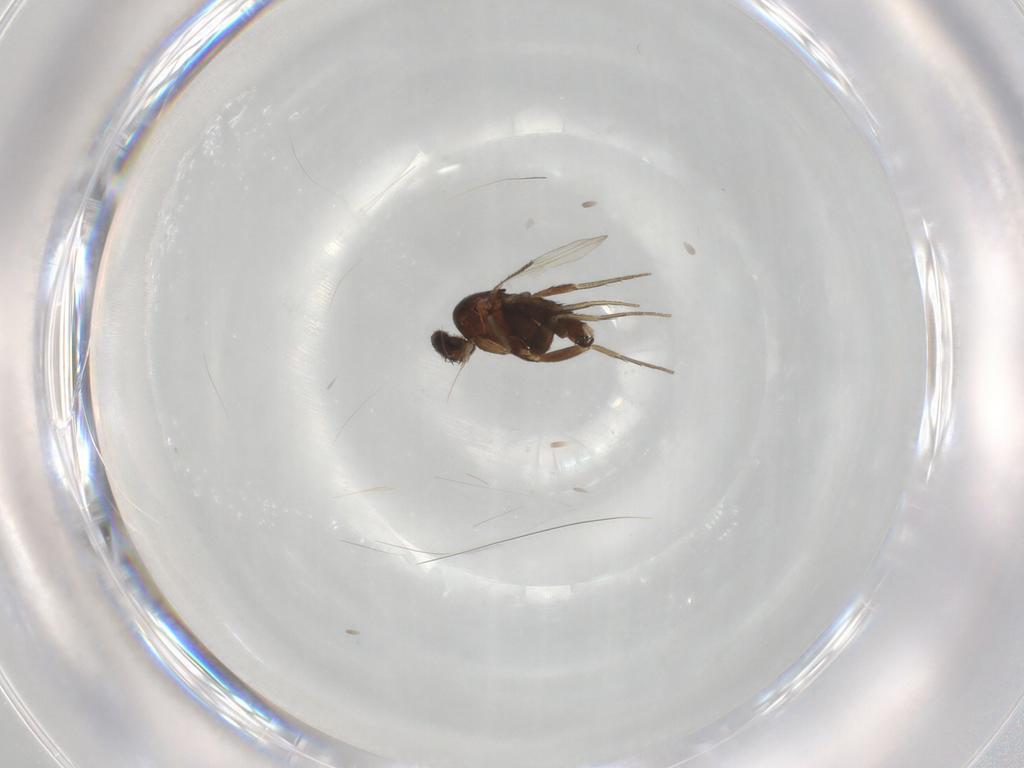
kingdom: Animalia
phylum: Arthropoda
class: Insecta
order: Diptera
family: Phoridae
